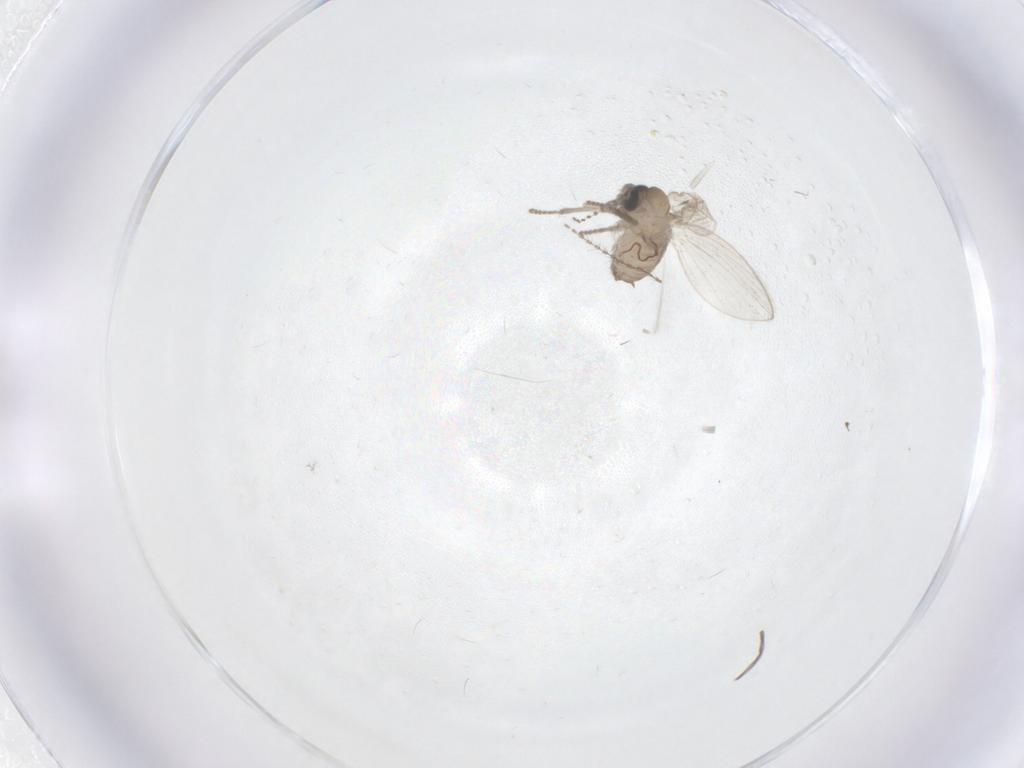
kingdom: Animalia
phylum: Arthropoda
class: Insecta
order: Diptera
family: Psychodidae
